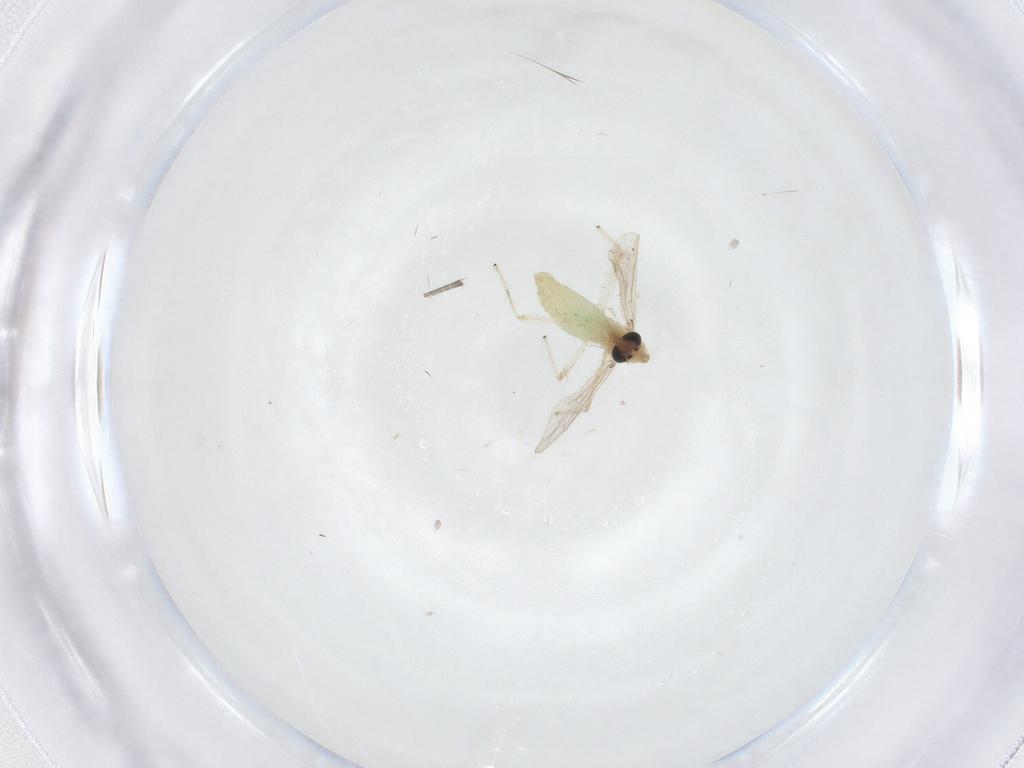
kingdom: Animalia
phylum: Arthropoda
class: Insecta
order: Diptera
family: Chironomidae
